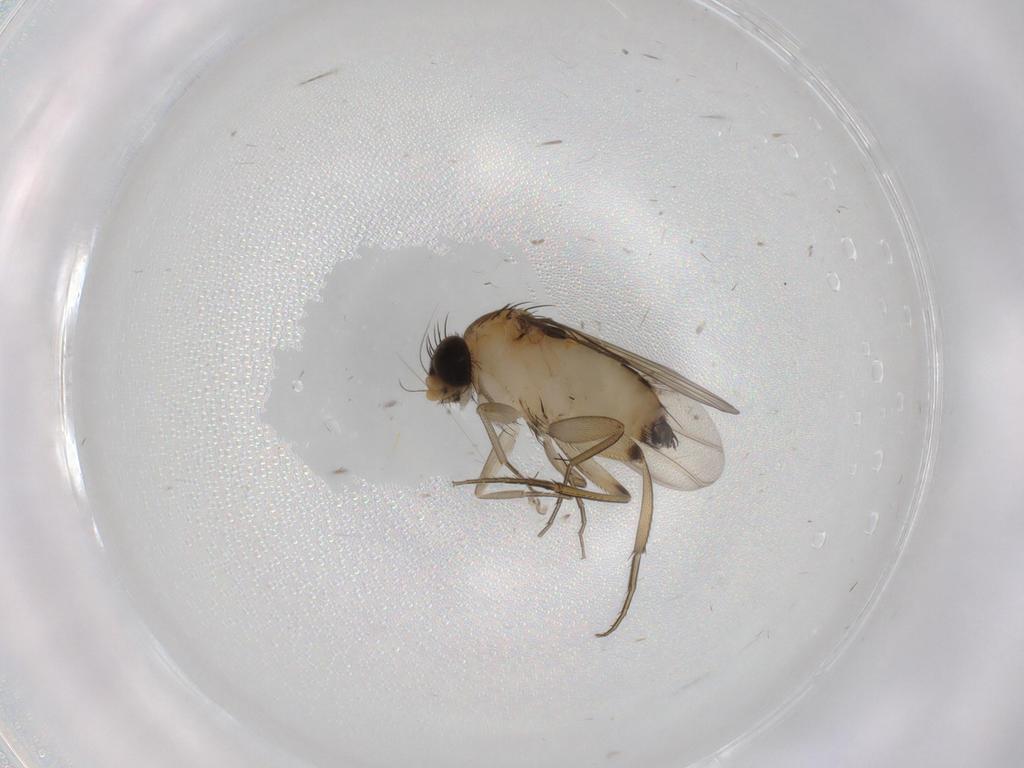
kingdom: Animalia
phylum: Arthropoda
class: Insecta
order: Diptera
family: Phoridae
